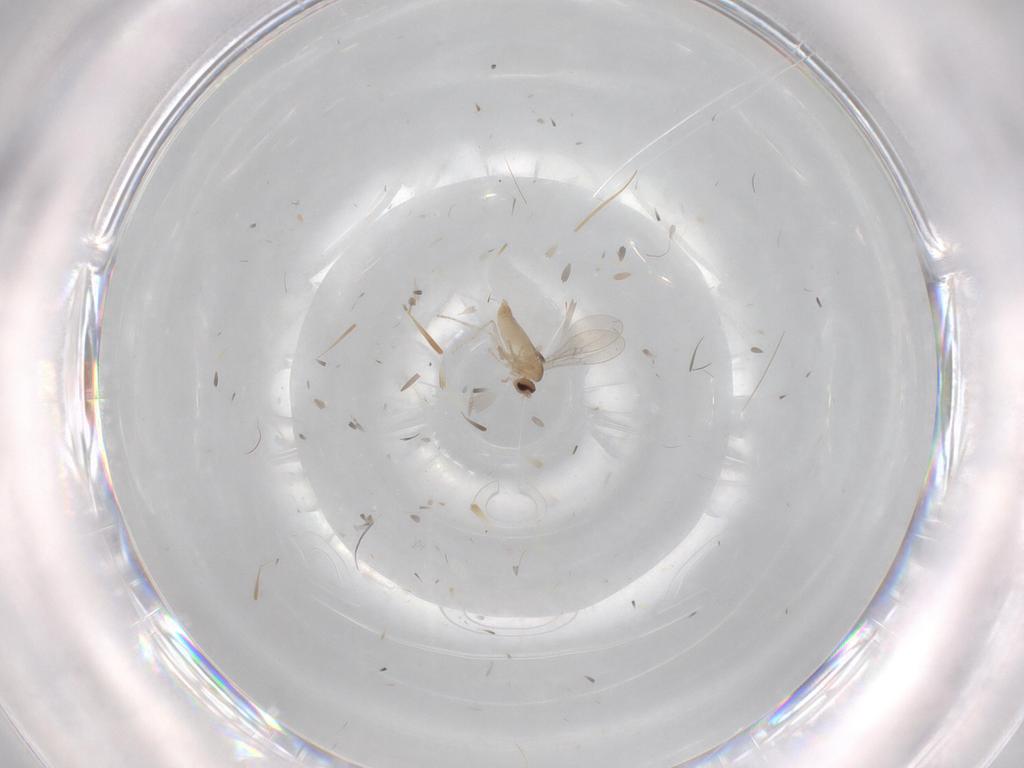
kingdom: Animalia
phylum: Arthropoda
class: Insecta
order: Diptera
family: Cecidomyiidae
